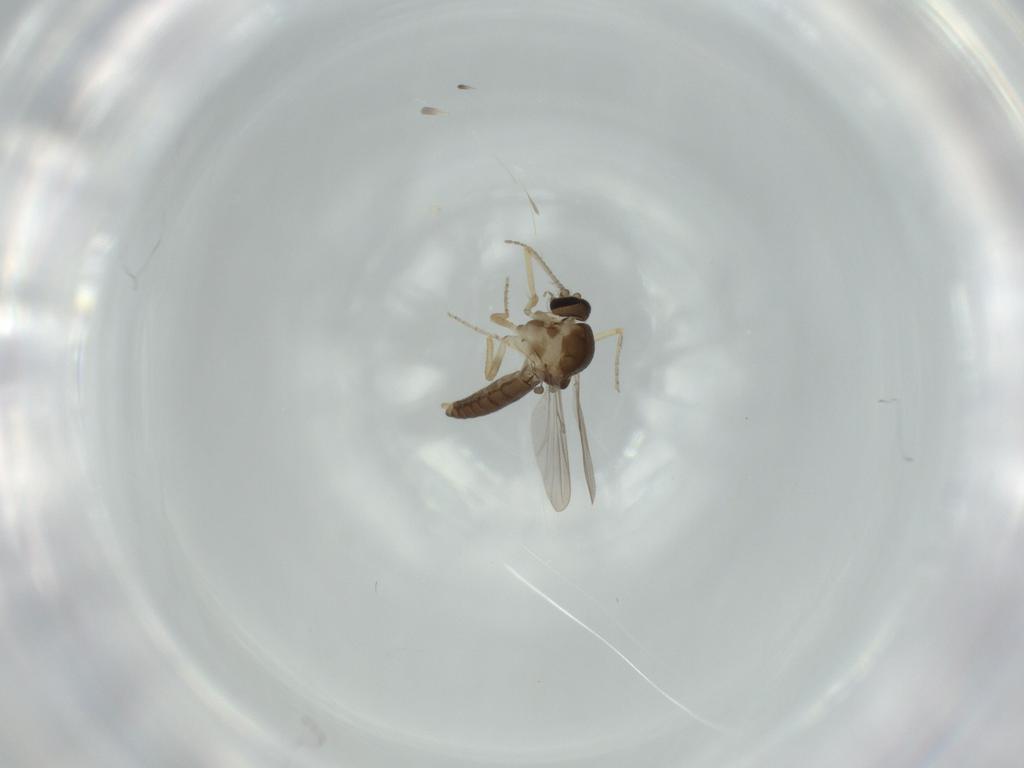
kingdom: Animalia
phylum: Arthropoda
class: Insecta
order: Diptera
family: Ceratopogonidae
